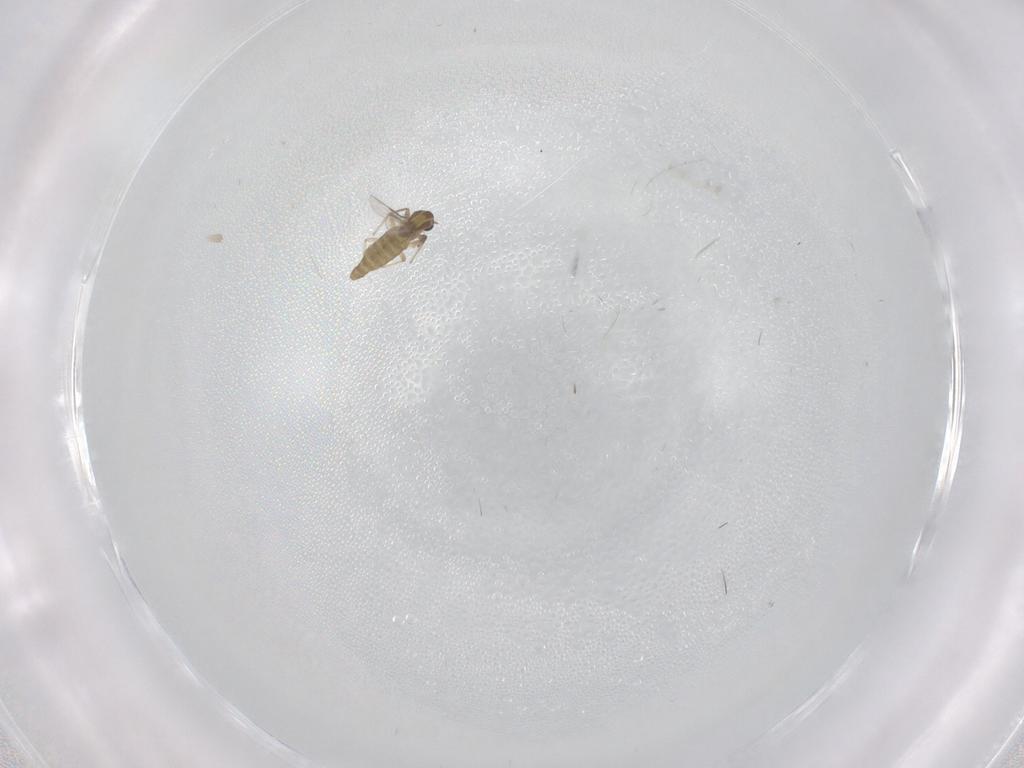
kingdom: Animalia
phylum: Arthropoda
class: Insecta
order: Diptera
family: Chironomidae
